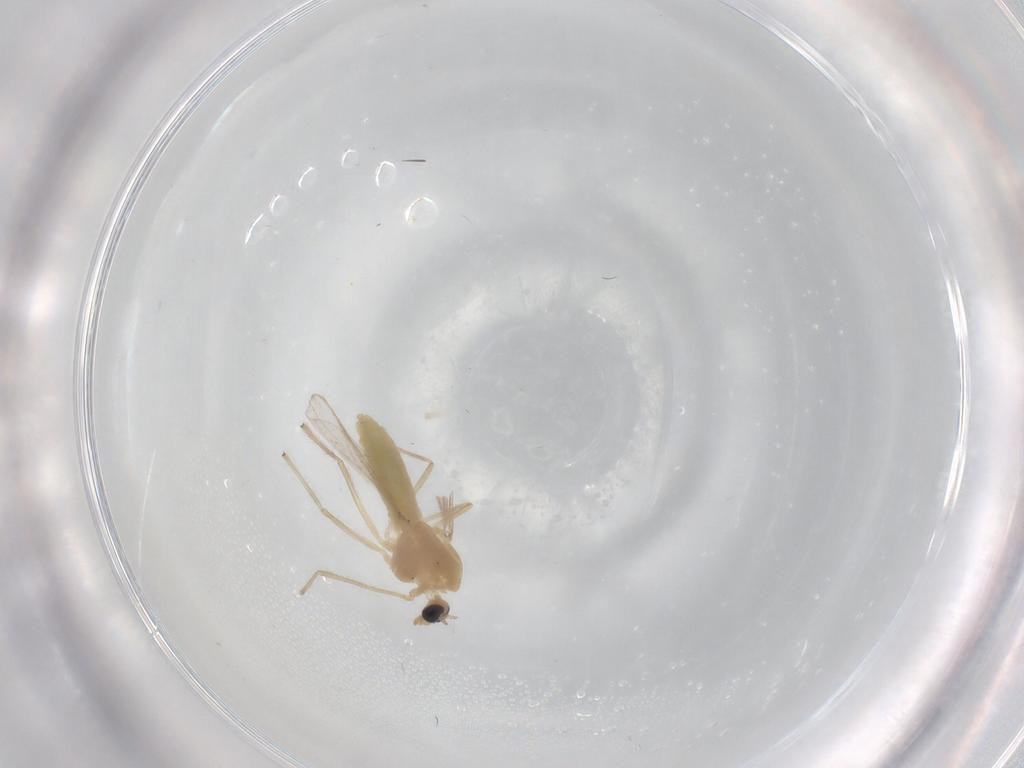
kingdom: Animalia
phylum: Arthropoda
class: Insecta
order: Diptera
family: Chironomidae
